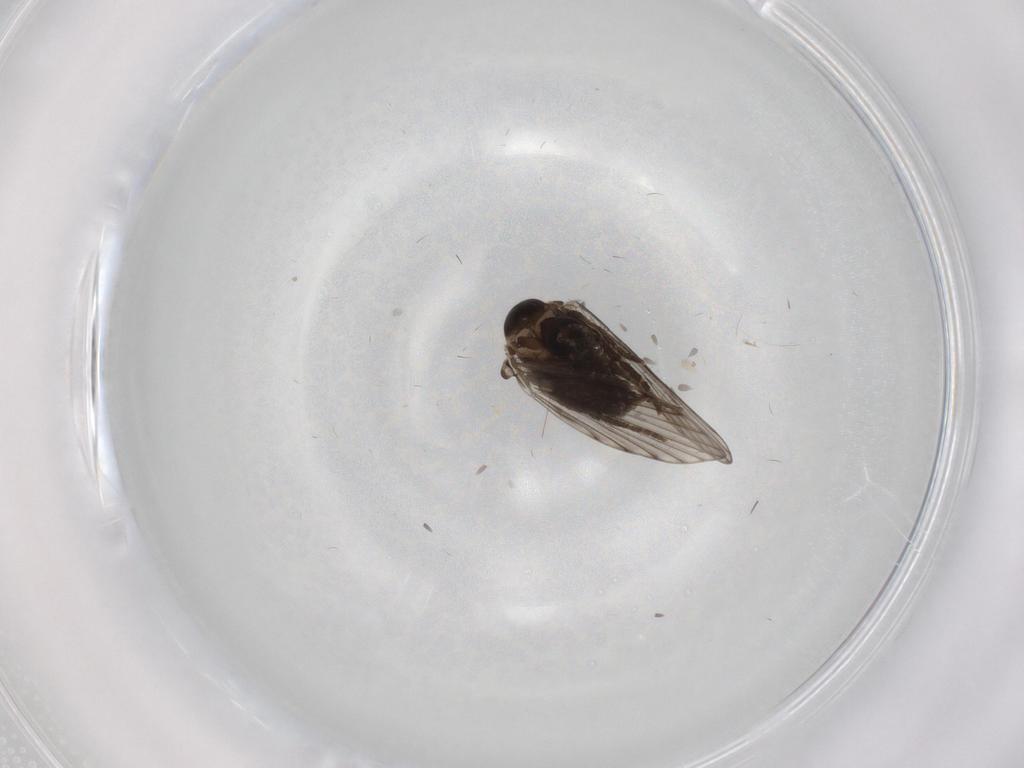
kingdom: Animalia
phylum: Arthropoda
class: Insecta
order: Diptera
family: Psychodidae
